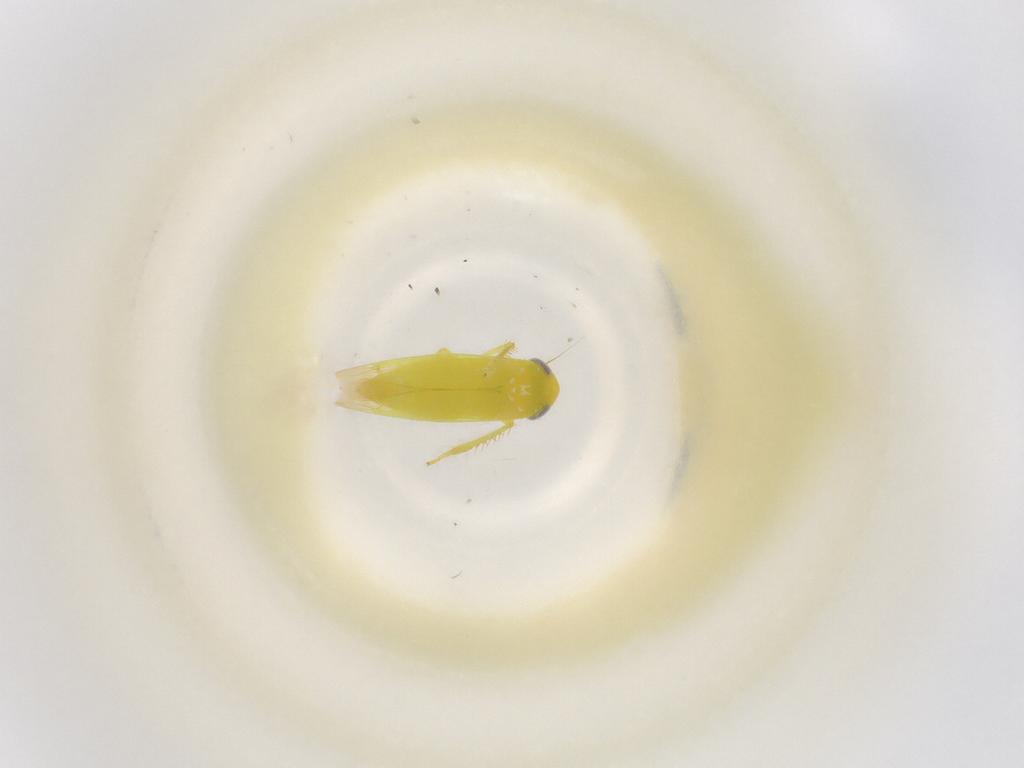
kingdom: Animalia
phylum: Arthropoda
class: Insecta
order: Hemiptera
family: Cicadellidae
